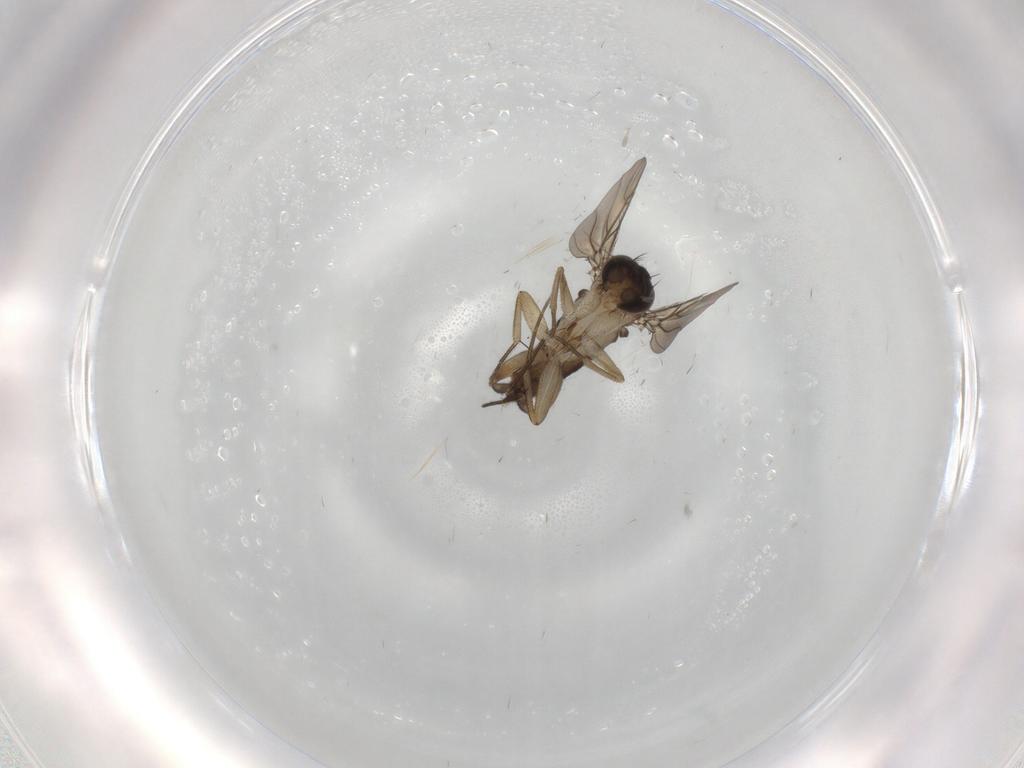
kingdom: Animalia
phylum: Arthropoda
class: Insecta
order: Diptera
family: Phoridae
